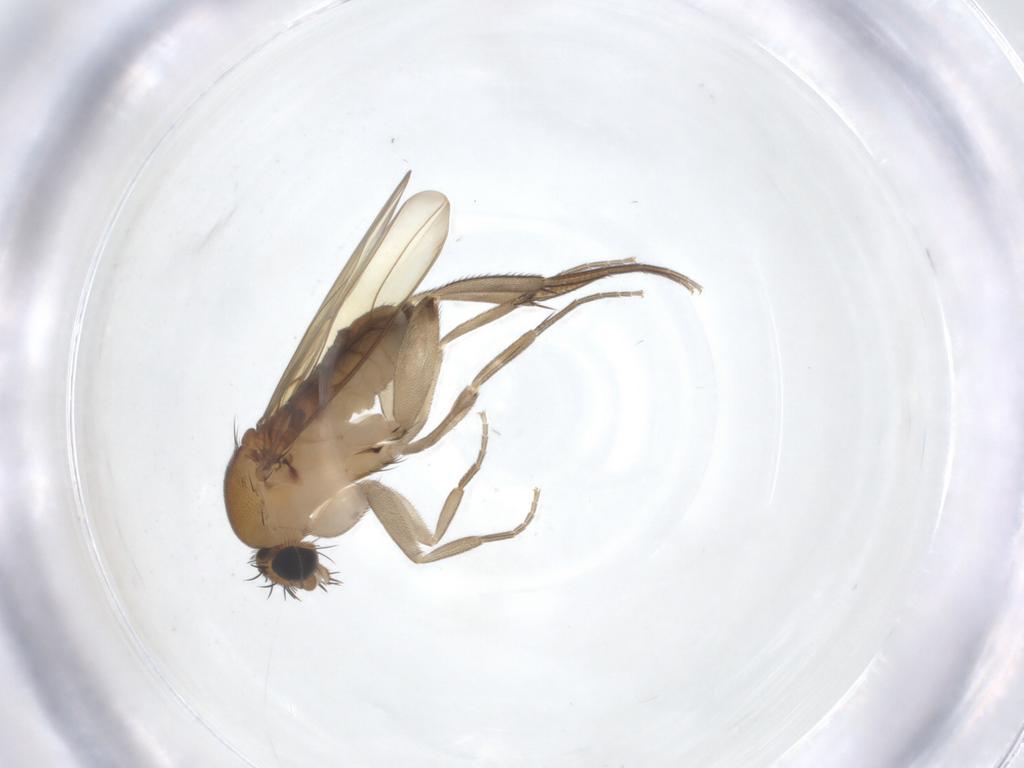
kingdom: Animalia
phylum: Arthropoda
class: Insecta
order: Diptera
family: Phoridae
